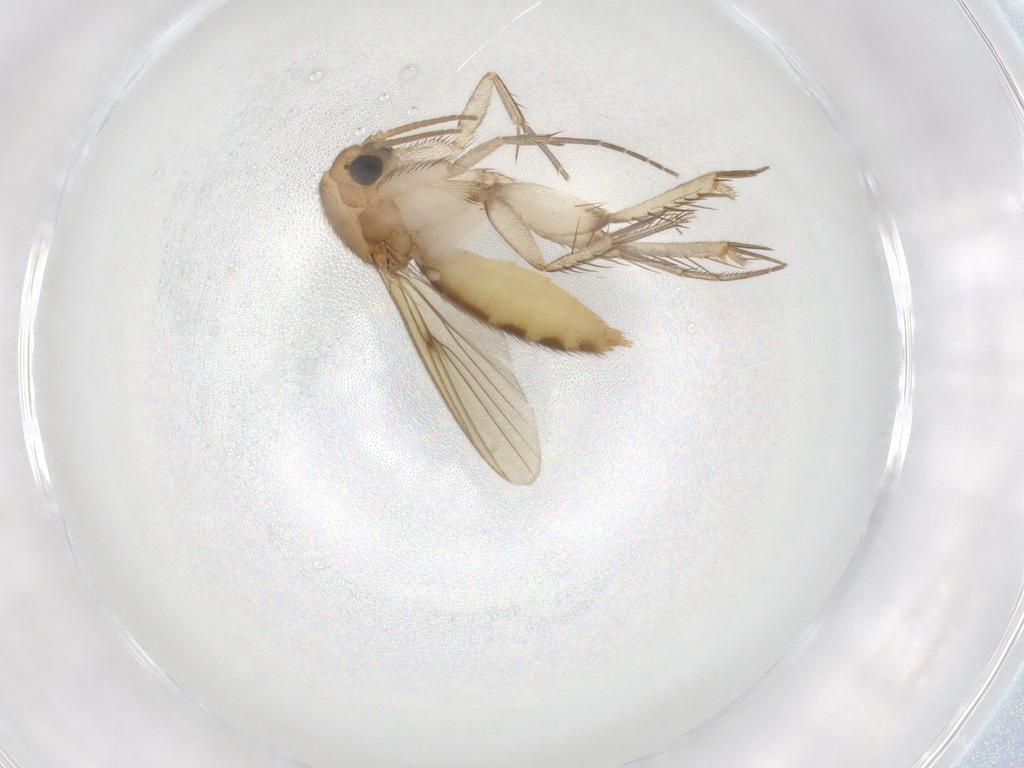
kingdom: Animalia
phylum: Arthropoda
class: Insecta
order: Diptera
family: Mycetophilidae
